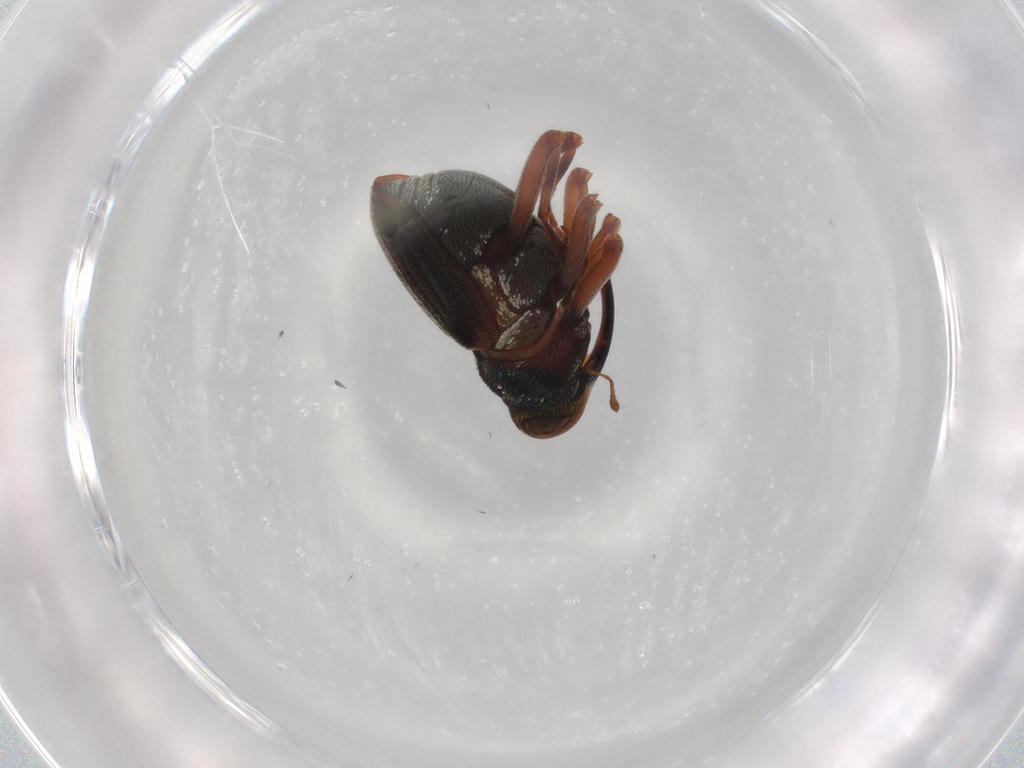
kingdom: Animalia
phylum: Arthropoda
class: Insecta
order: Coleoptera
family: Curculionidae
